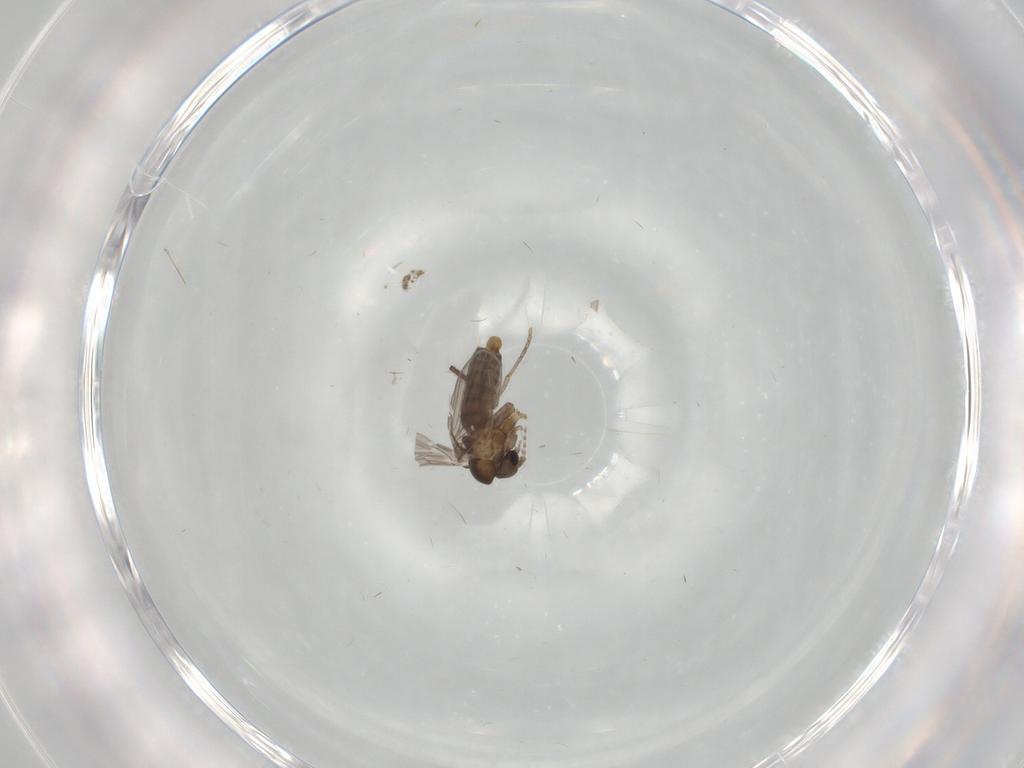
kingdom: Animalia
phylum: Arthropoda
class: Insecta
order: Diptera
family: Chironomidae
